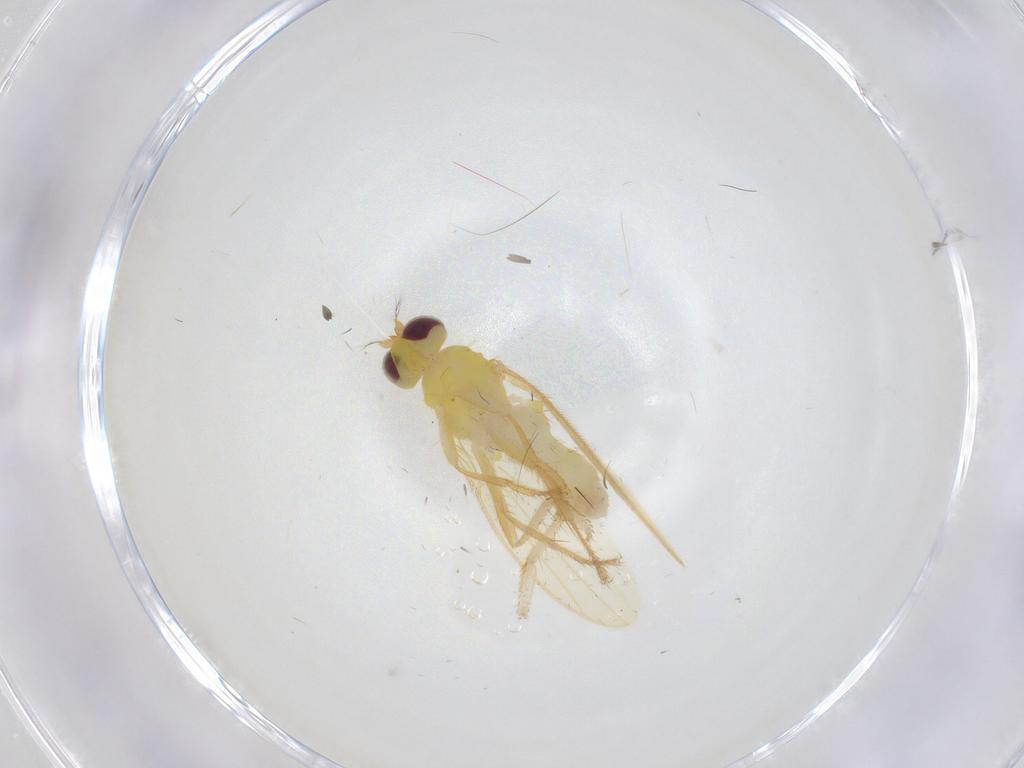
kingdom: Animalia
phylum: Arthropoda
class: Insecta
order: Diptera
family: Periscelididae
